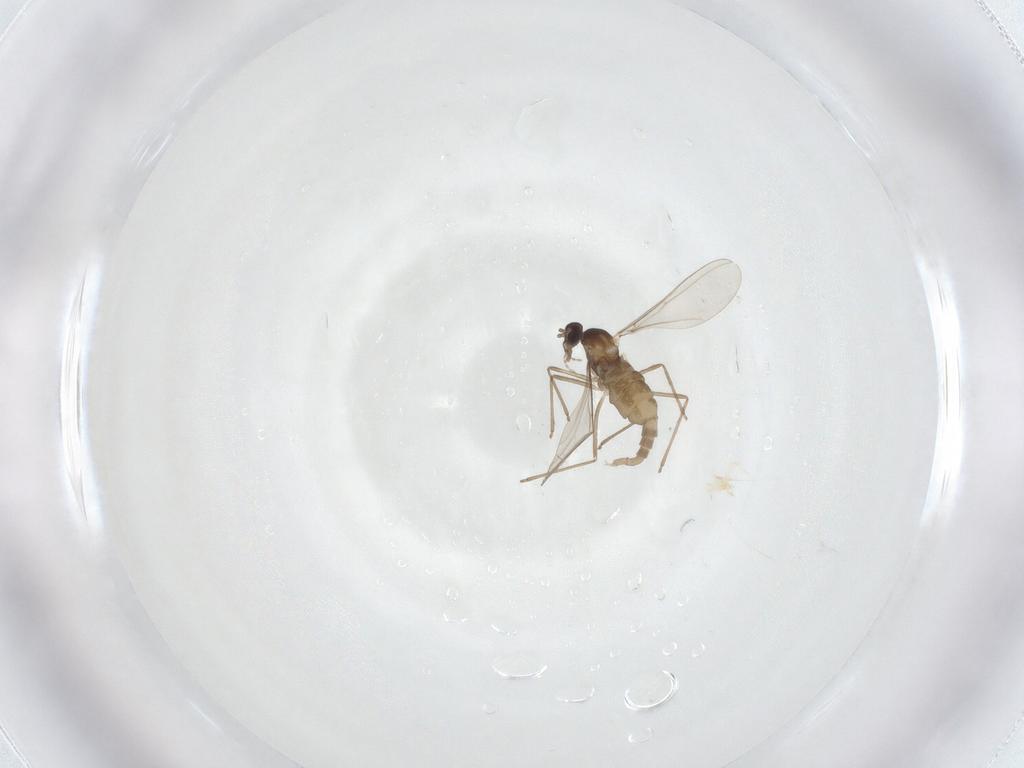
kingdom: Animalia
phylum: Arthropoda
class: Insecta
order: Diptera
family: Cecidomyiidae
